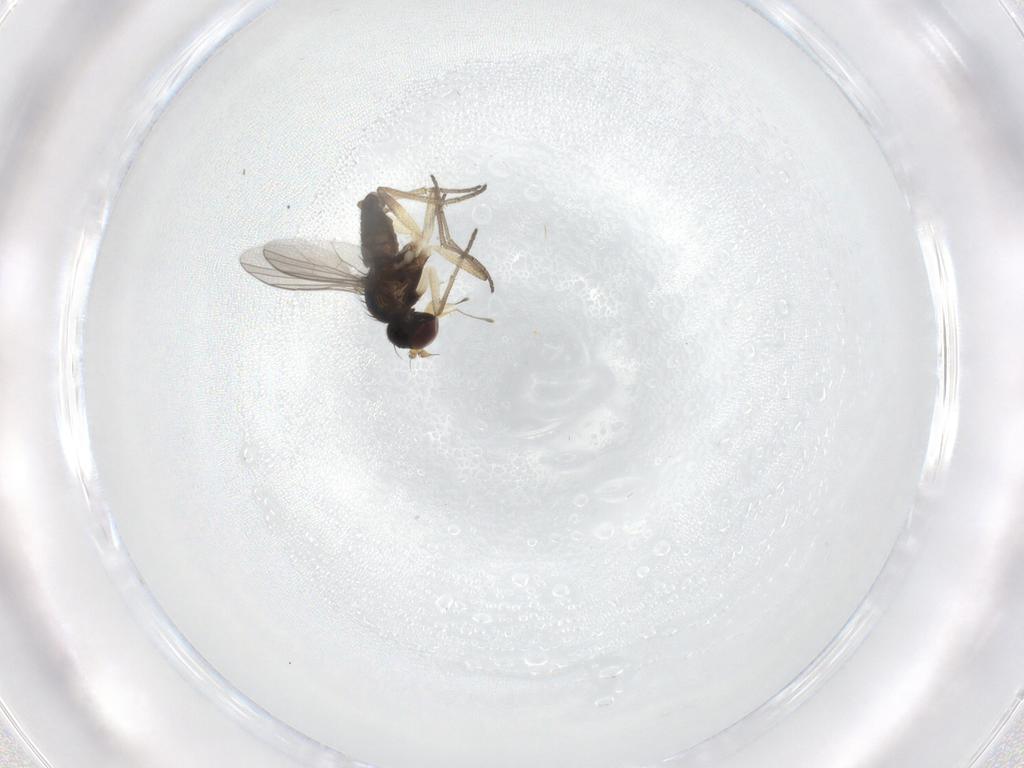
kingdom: Animalia
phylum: Arthropoda
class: Insecta
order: Diptera
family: Dolichopodidae
